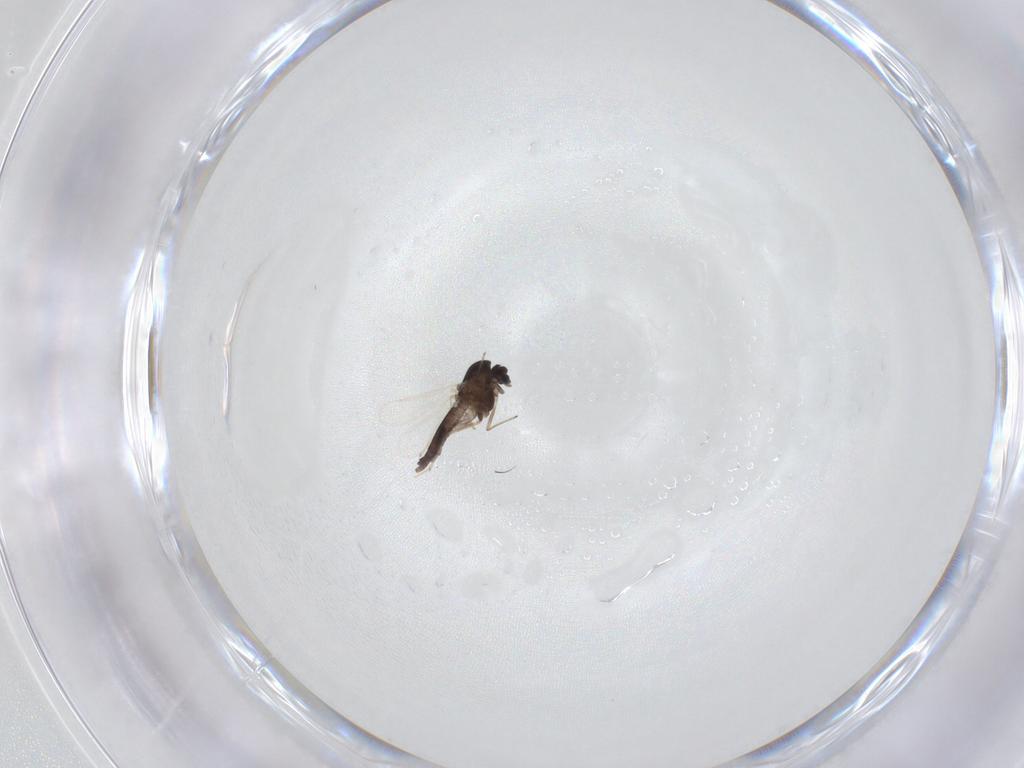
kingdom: Animalia
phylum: Arthropoda
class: Insecta
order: Diptera
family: Chironomidae
